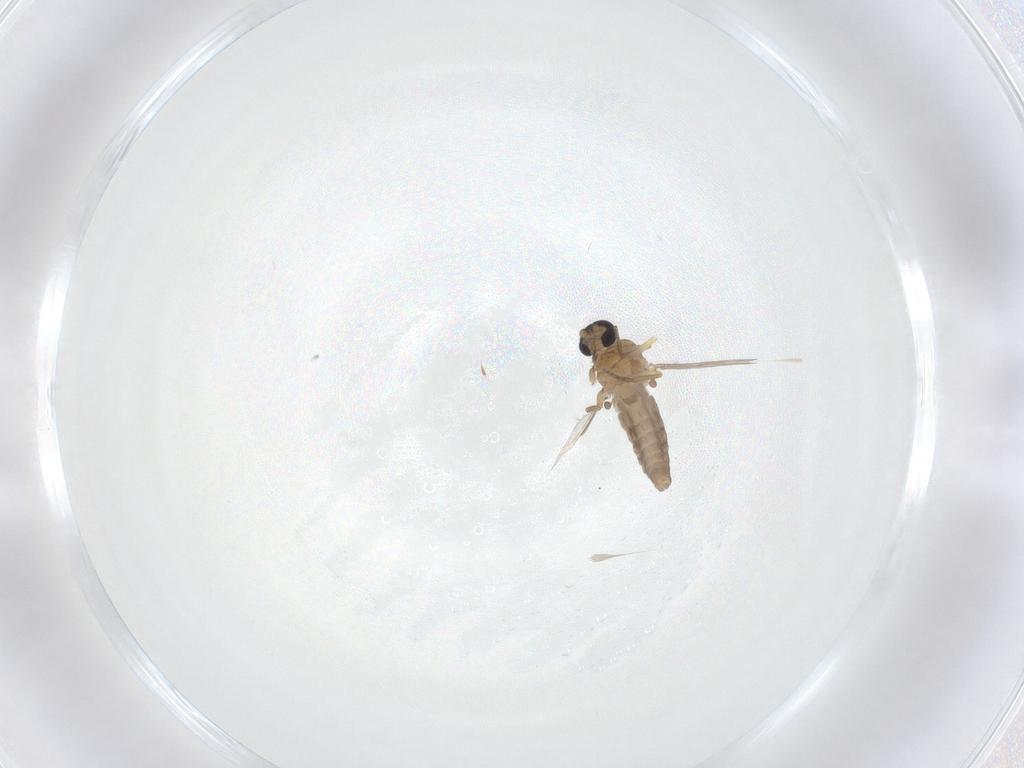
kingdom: Animalia
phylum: Arthropoda
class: Insecta
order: Diptera
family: Ceratopogonidae
